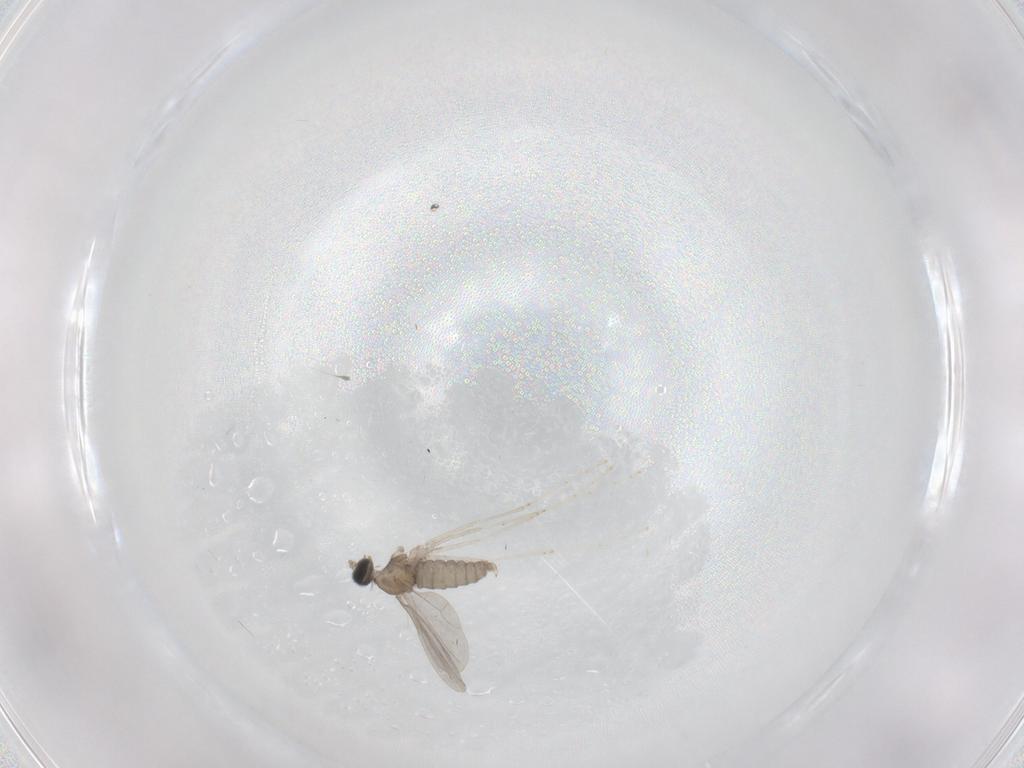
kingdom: Animalia
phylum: Arthropoda
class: Insecta
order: Diptera
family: Cecidomyiidae
